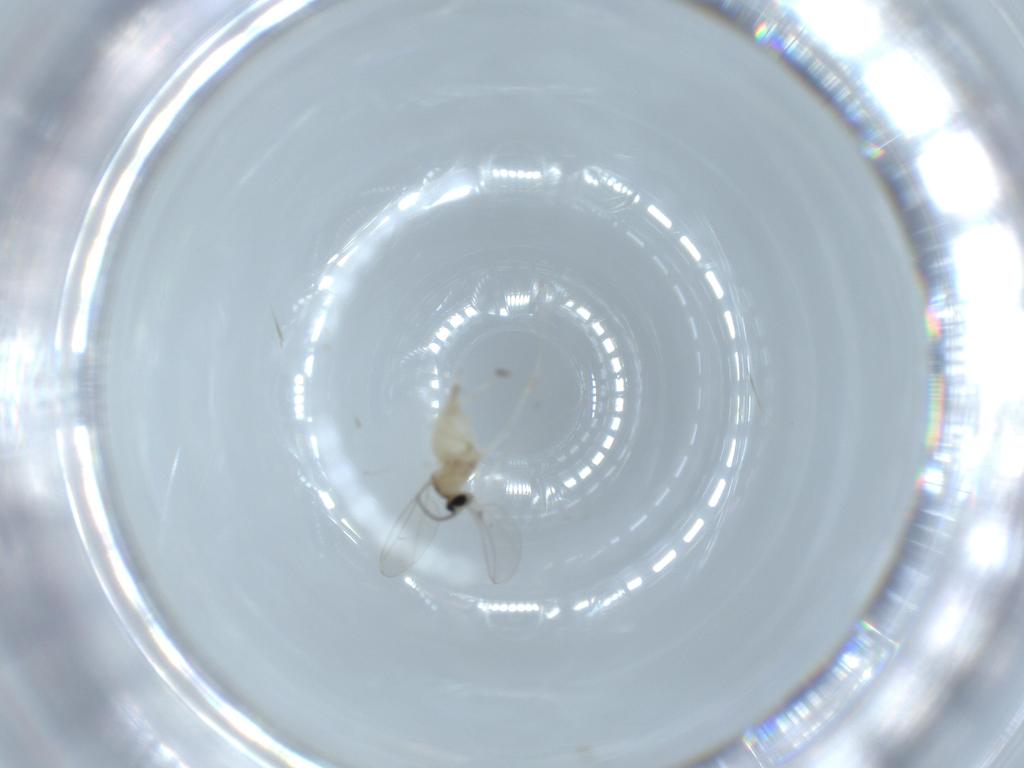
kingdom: Animalia
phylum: Arthropoda
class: Insecta
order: Diptera
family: Cecidomyiidae
